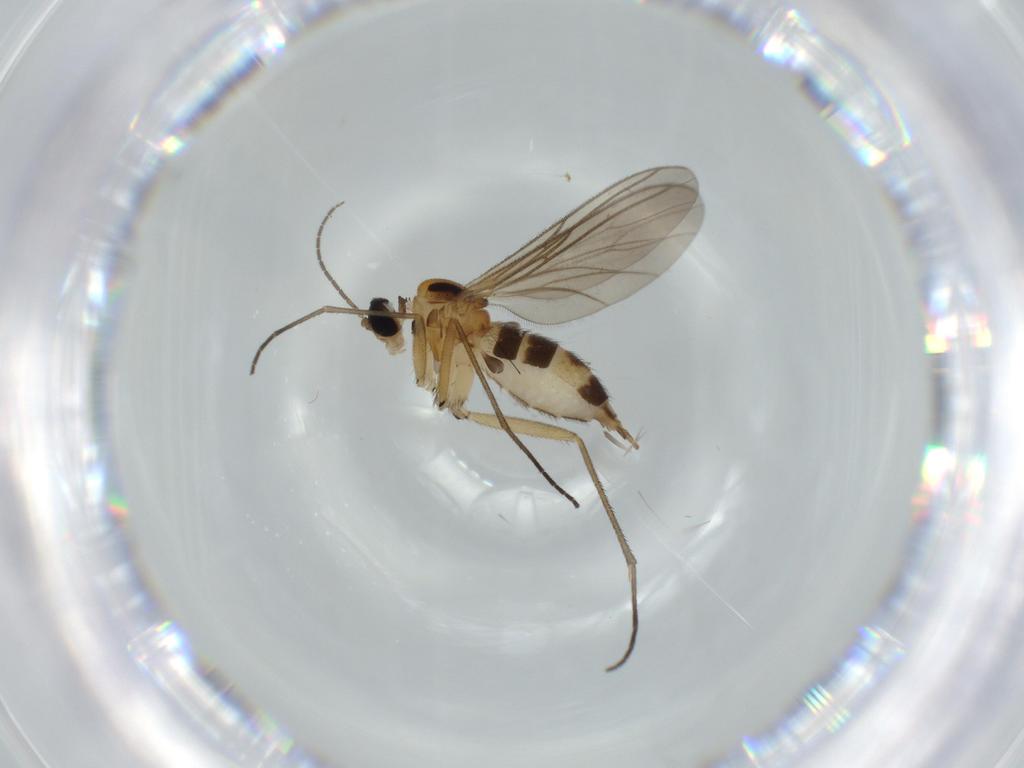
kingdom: Animalia
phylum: Arthropoda
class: Insecta
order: Diptera
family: Sciaridae
